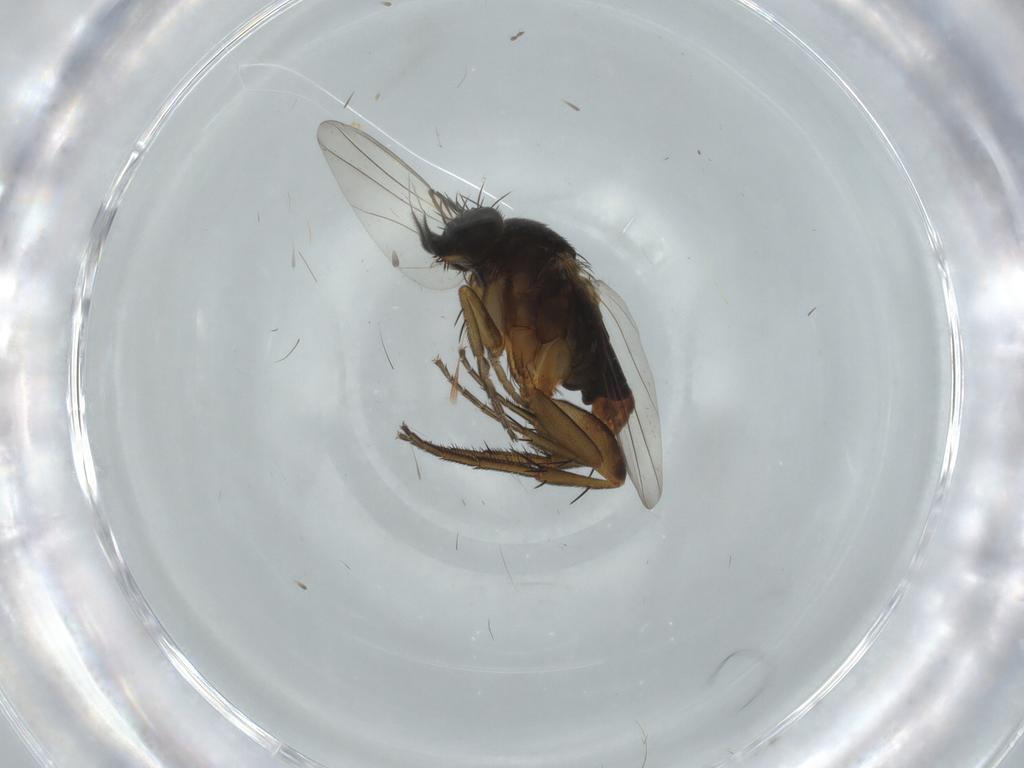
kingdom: Animalia
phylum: Arthropoda
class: Insecta
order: Diptera
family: Phoridae
